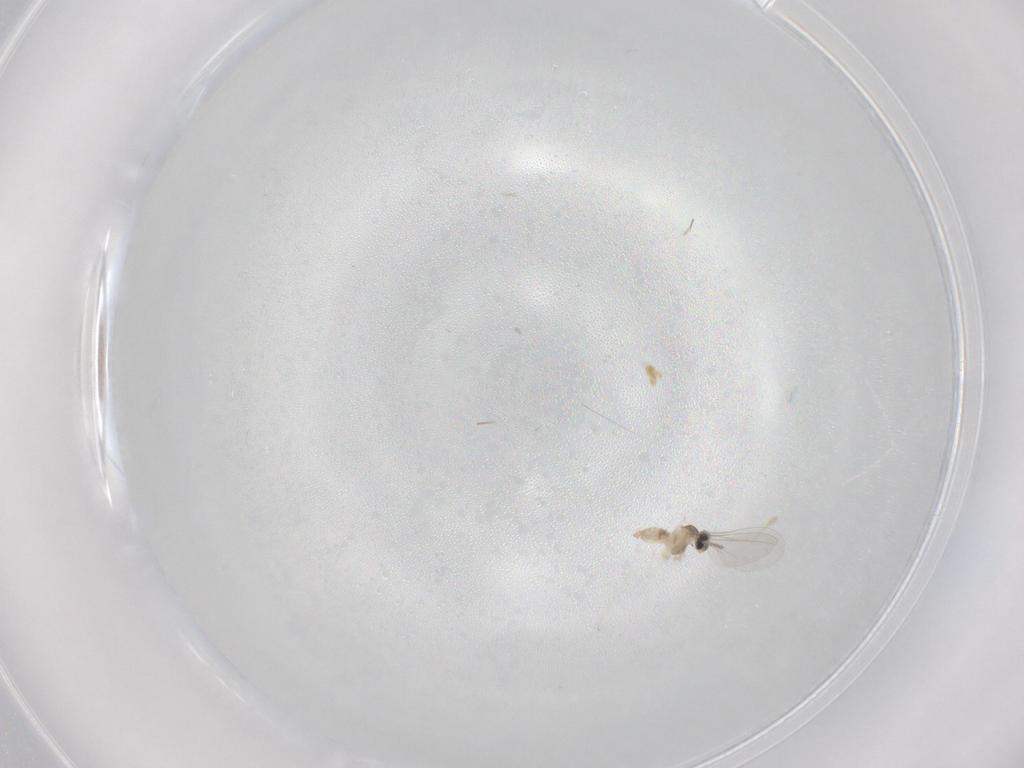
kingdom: Animalia
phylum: Arthropoda
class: Insecta
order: Diptera
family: Cecidomyiidae
